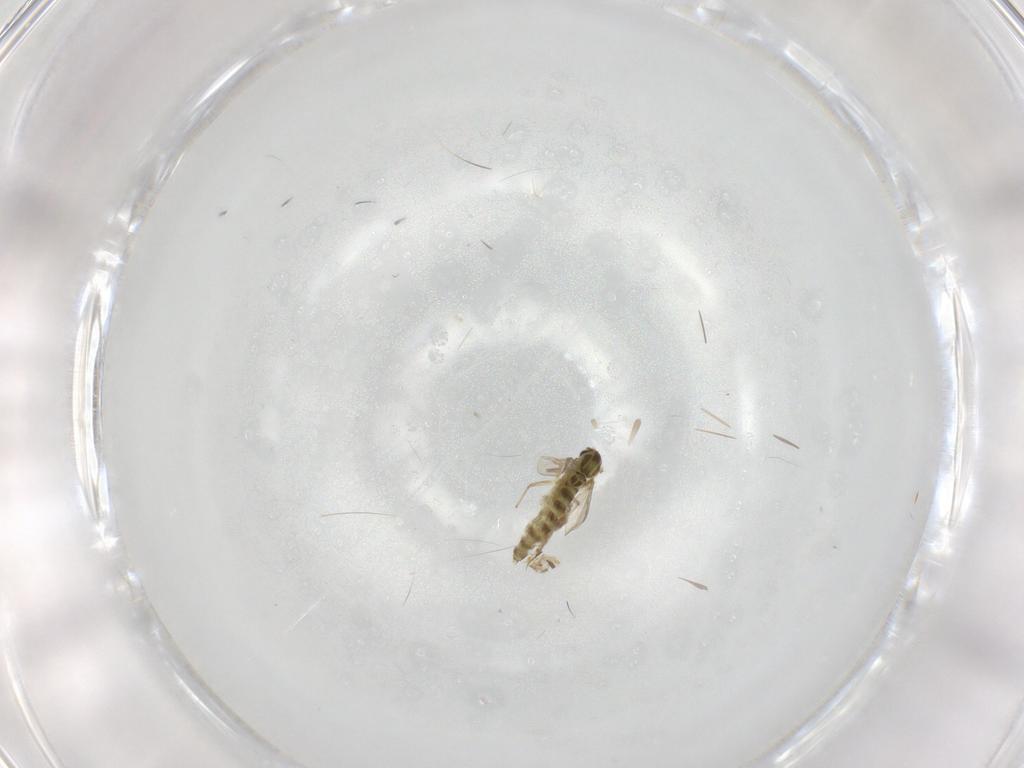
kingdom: Animalia
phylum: Arthropoda
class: Insecta
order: Diptera
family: Chironomidae
